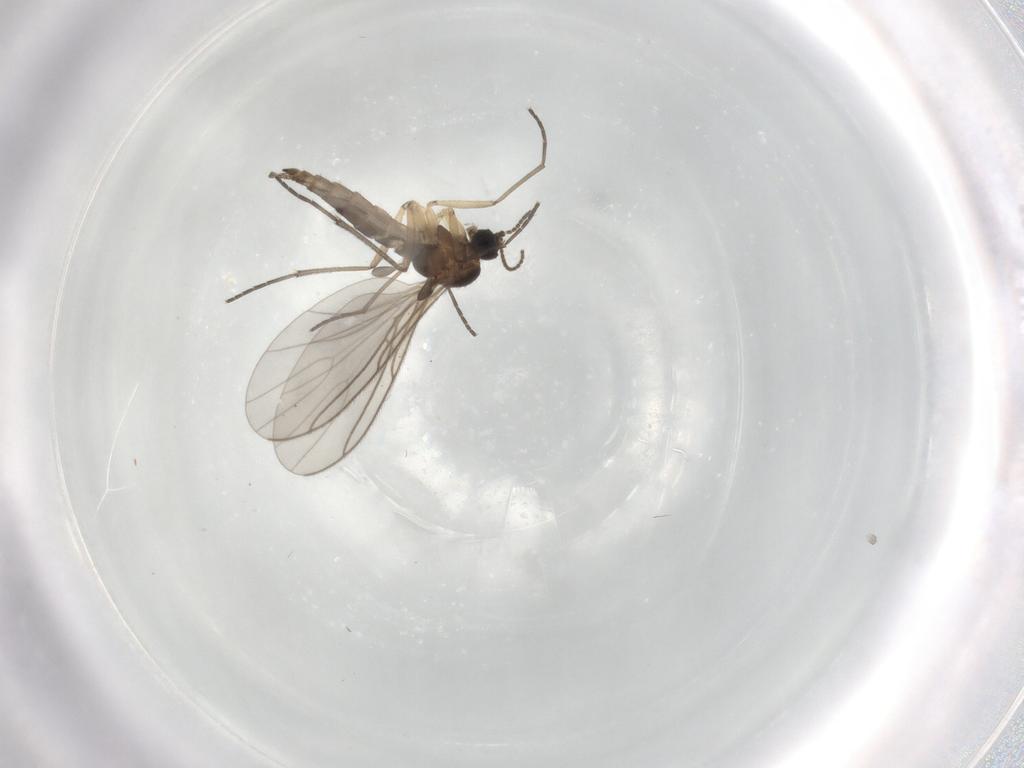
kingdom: Animalia
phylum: Arthropoda
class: Insecta
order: Diptera
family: Sciaridae
